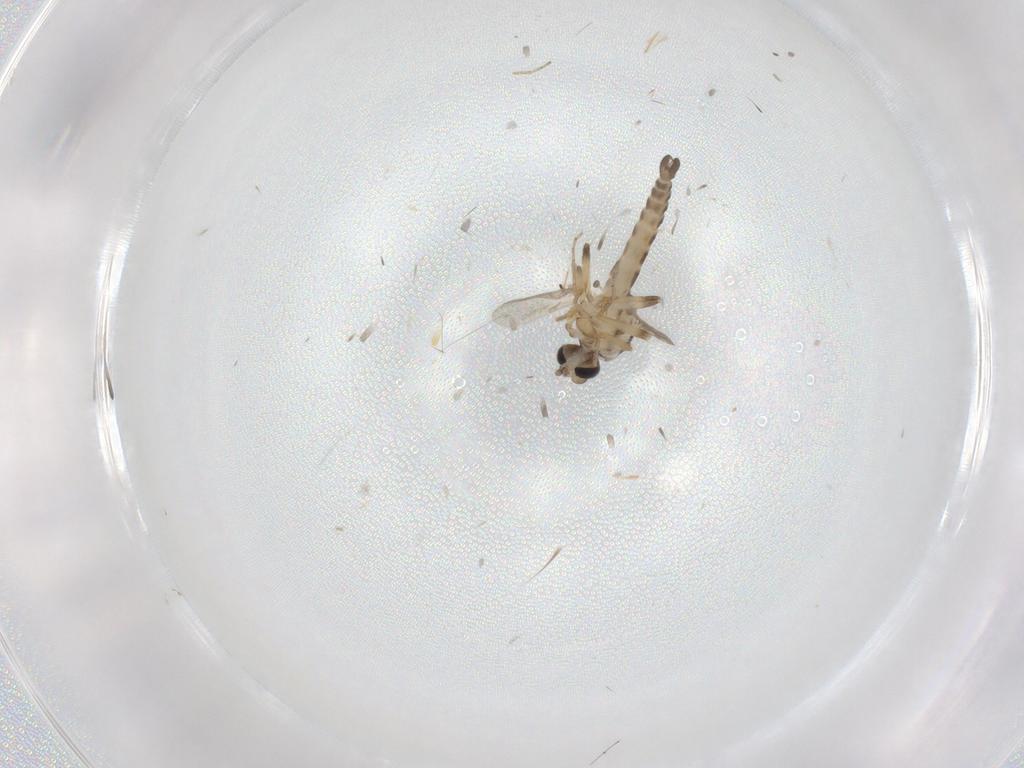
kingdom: Animalia
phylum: Arthropoda
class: Insecta
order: Diptera
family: Ceratopogonidae
